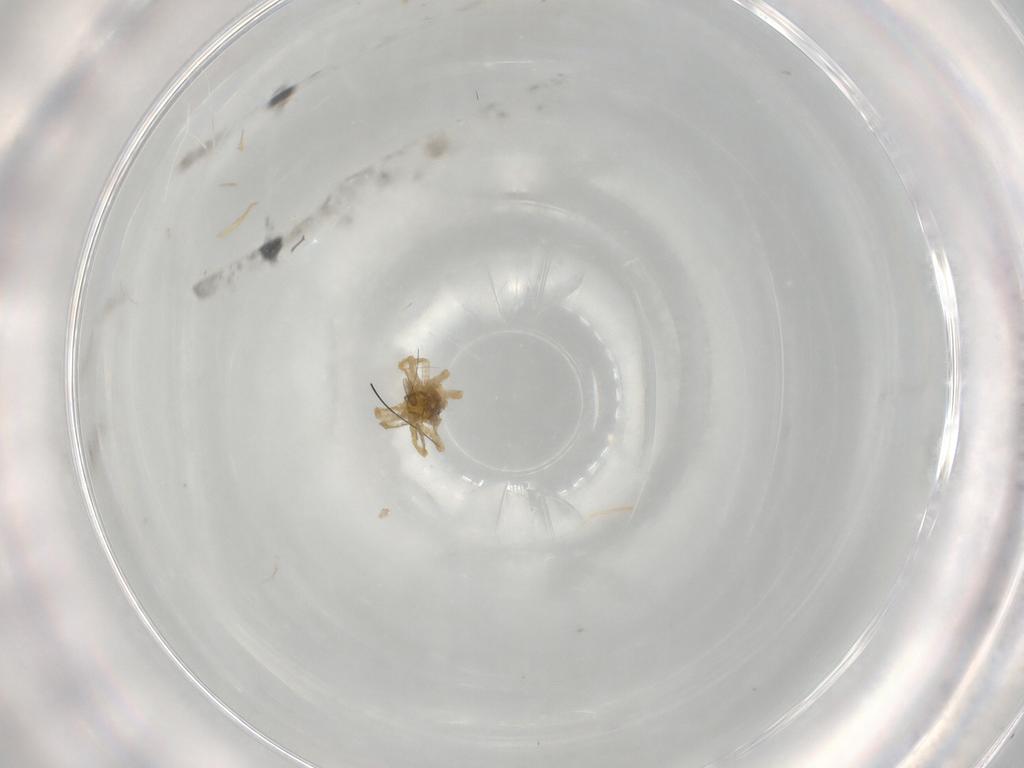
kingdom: Animalia
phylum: Arthropoda
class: Arachnida
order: Araneae
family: Linyphiidae
